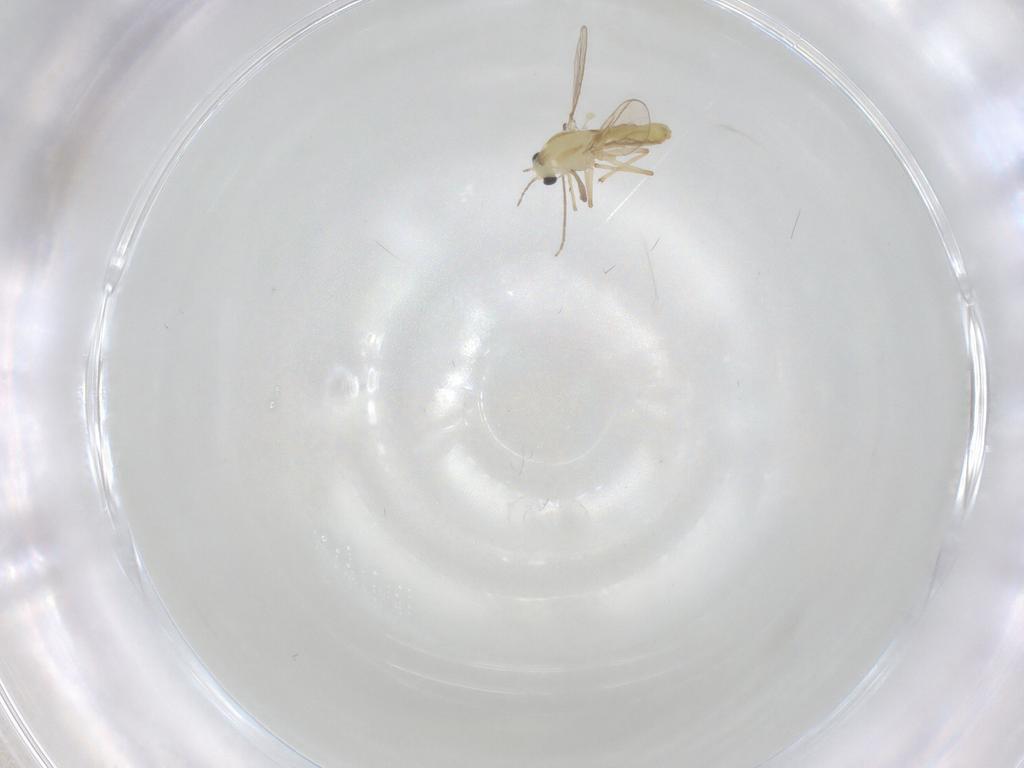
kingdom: Animalia
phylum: Arthropoda
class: Insecta
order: Diptera
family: Chironomidae
